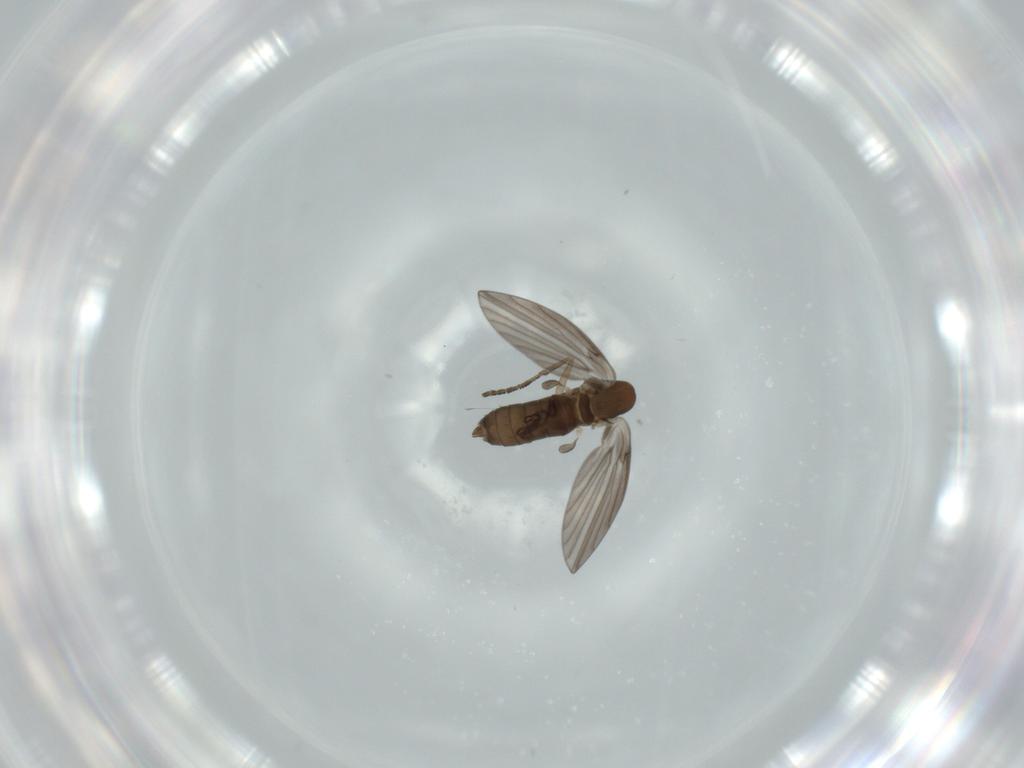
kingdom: Animalia
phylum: Arthropoda
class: Insecta
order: Diptera
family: Psychodidae
